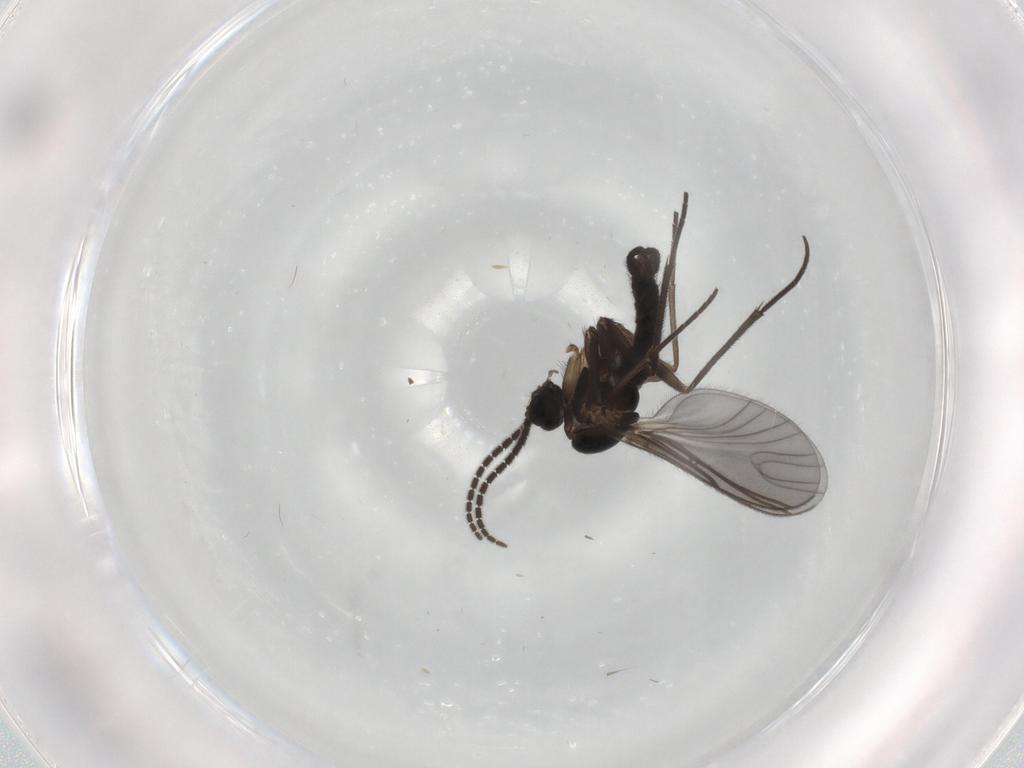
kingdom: Animalia
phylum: Arthropoda
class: Insecta
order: Diptera
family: Sciaridae
